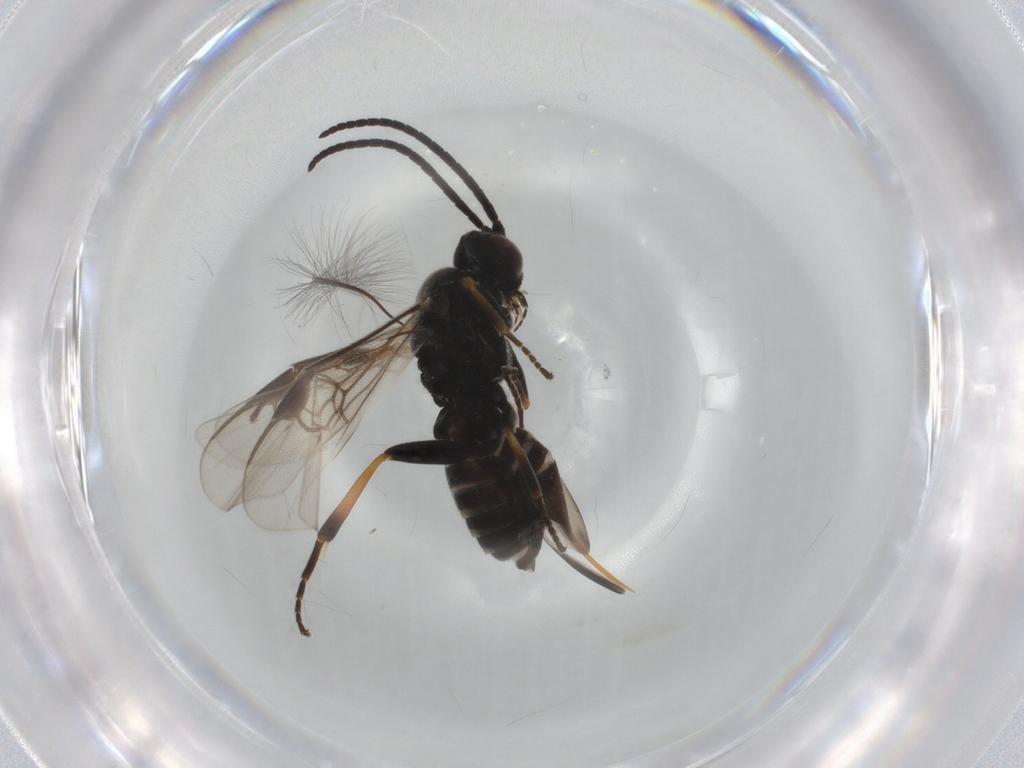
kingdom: Animalia
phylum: Arthropoda
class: Insecta
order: Hymenoptera
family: Braconidae
